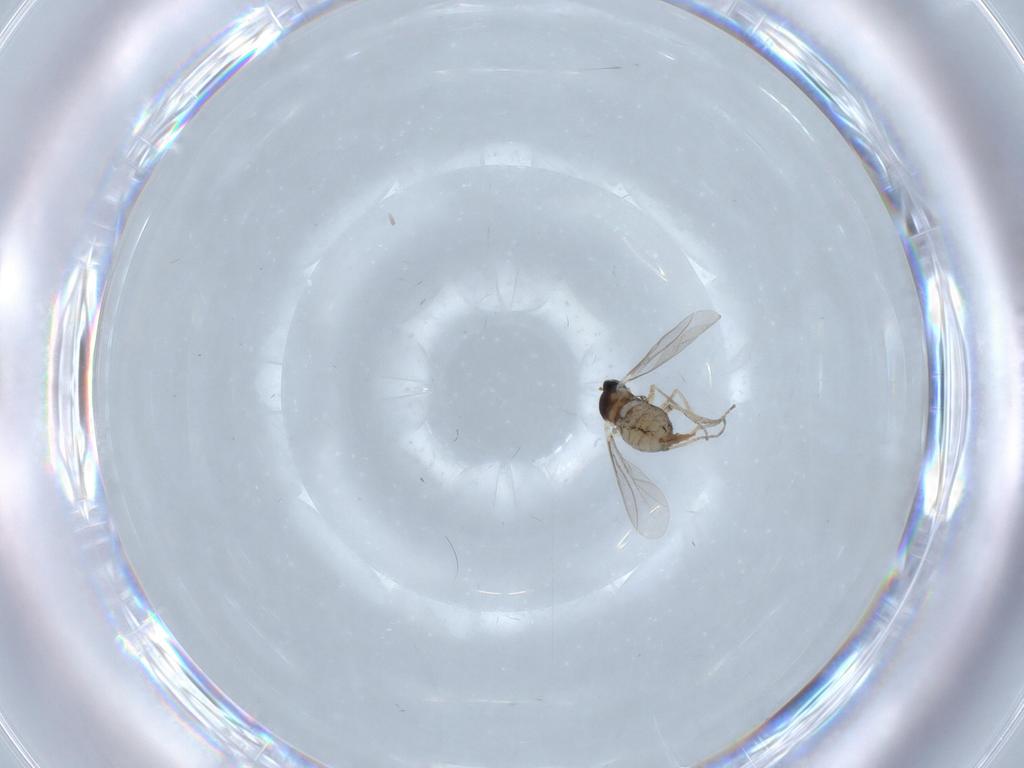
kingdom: Animalia
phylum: Arthropoda
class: Insecta
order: Diptera
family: Cecidomyiidae
